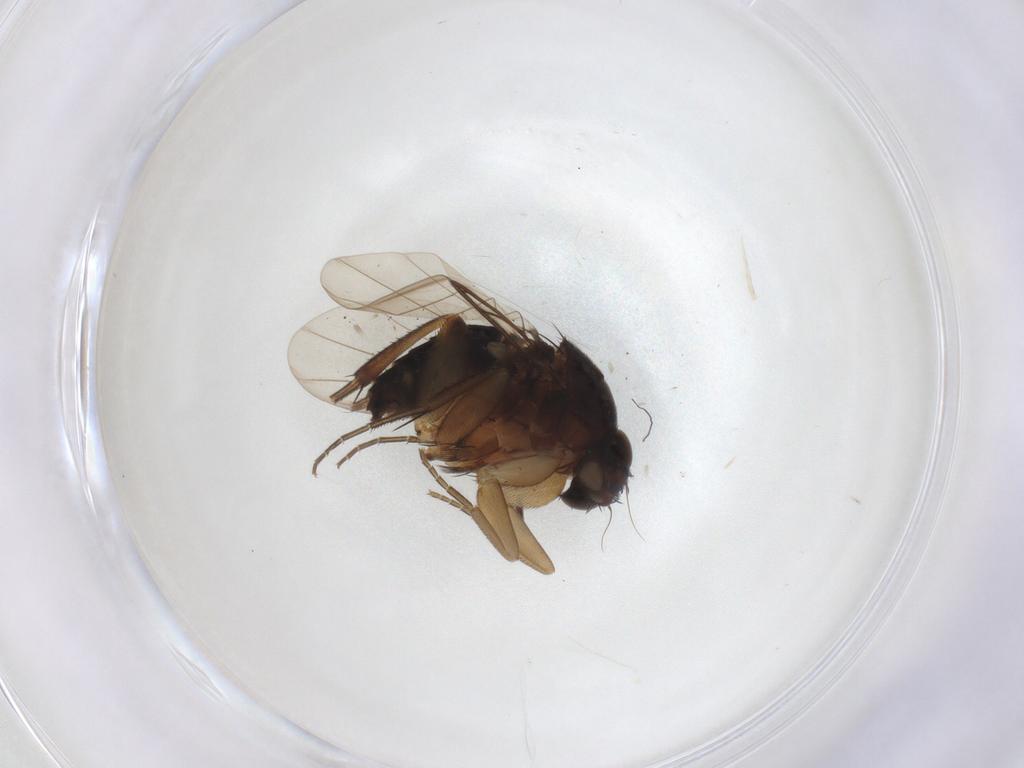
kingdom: Animalia
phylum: Arthropoda
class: Insecta
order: Diptera
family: Phoridae
